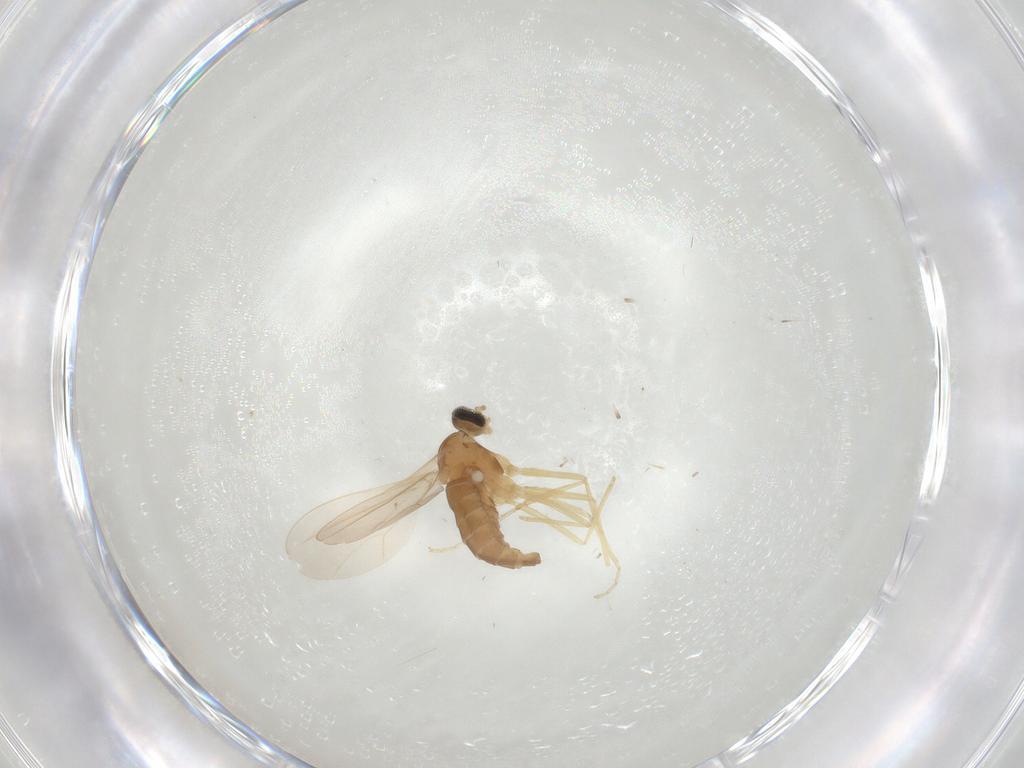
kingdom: Animalia
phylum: Arthropoda
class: Insecta
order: Diptera
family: Cecidomyiidae
